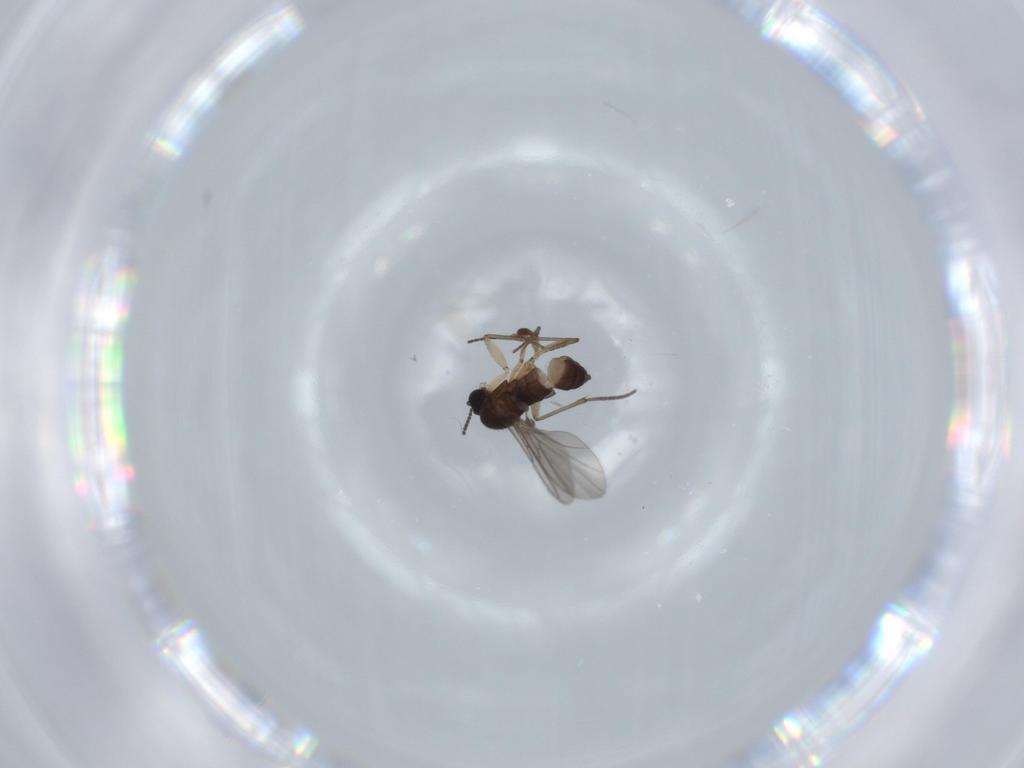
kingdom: Animalia
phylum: Arthropoda
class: Insecta
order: Diptera
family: Sciaridae
